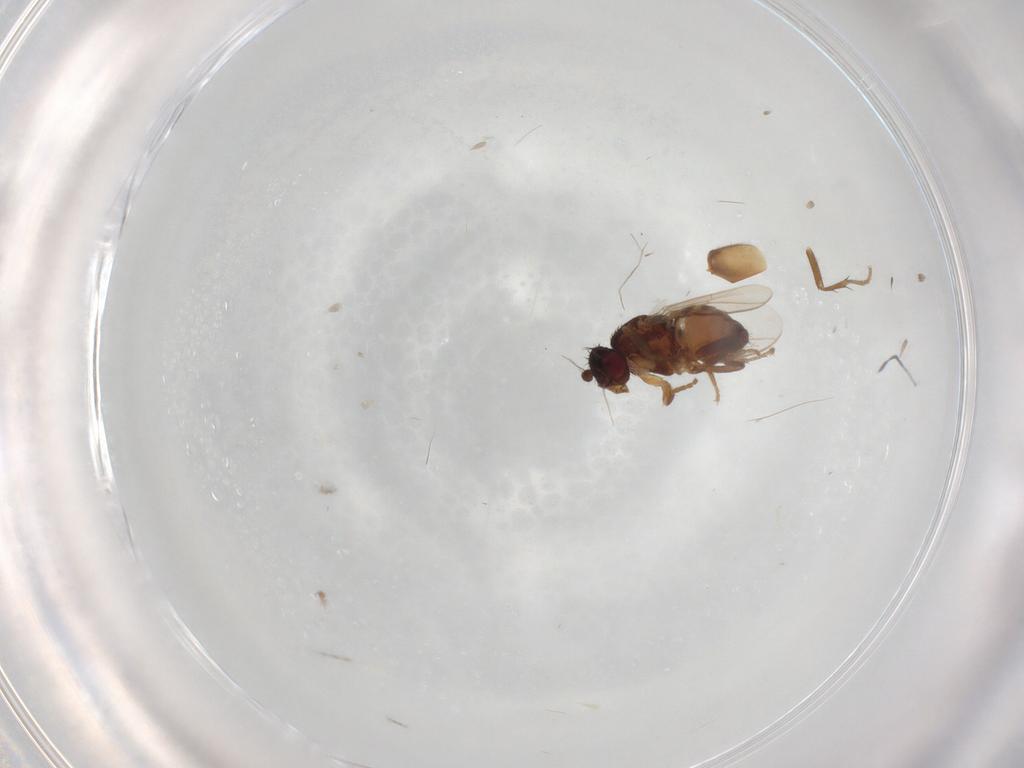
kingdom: Animalia
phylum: Arthropoda
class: Insecta
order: Diptera
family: Sphaeroceridae
